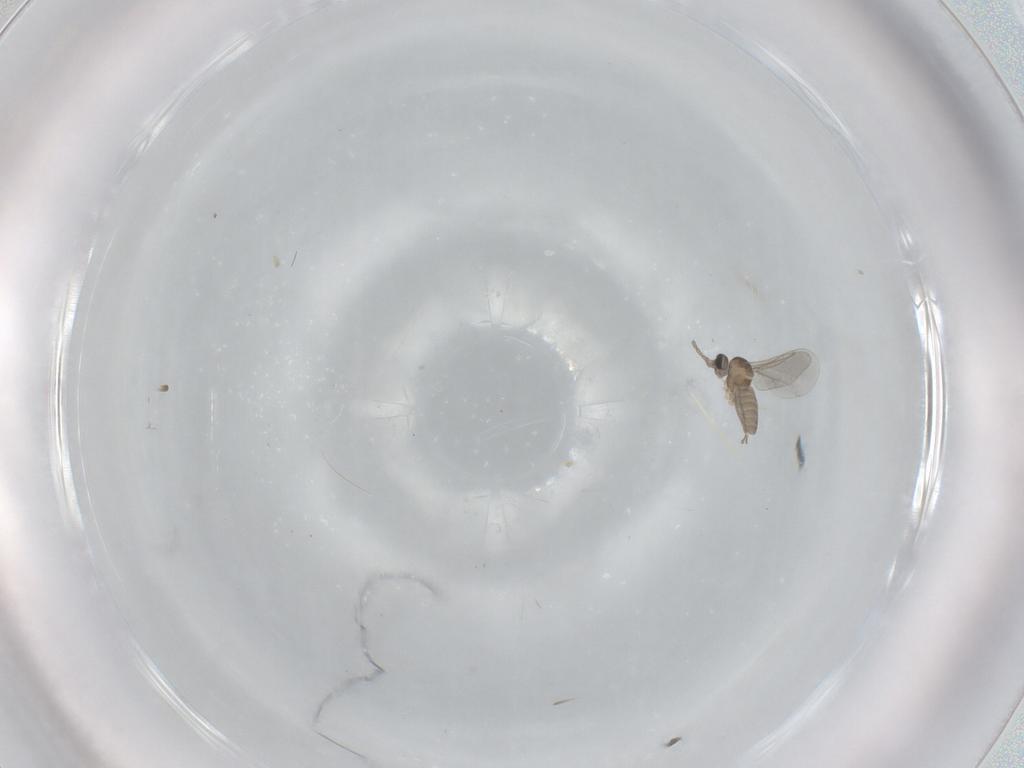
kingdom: Animalia
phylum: Arthropoda
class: Insecta
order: Diptera
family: Cecidomyiidae
